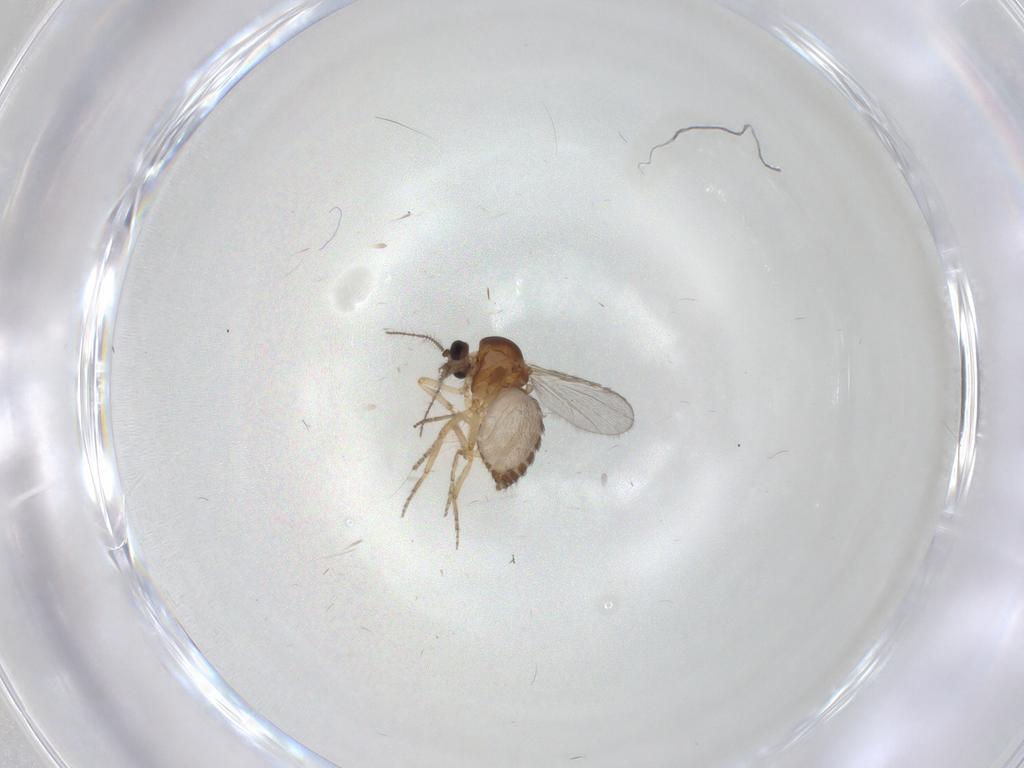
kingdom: Animalia
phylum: Arthropoda
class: Insecta
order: Diptera
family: Ceratopogonidae
